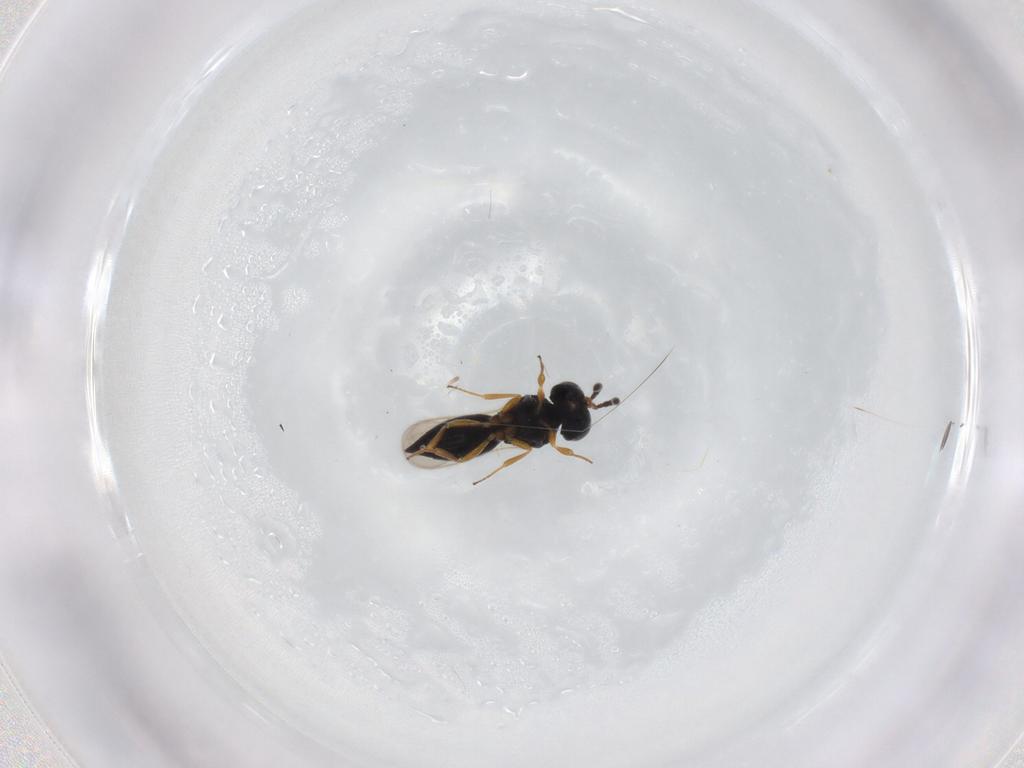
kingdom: Animalia
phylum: Arthropoda
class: Insecta
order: Hymenoptera
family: Scelionidae
